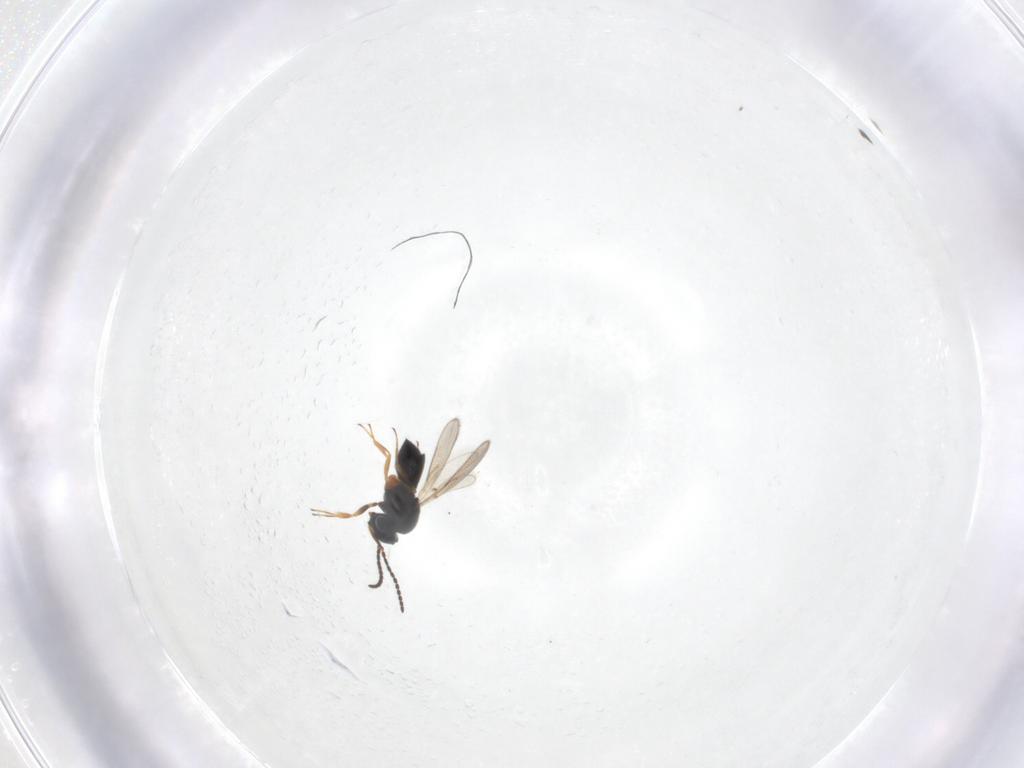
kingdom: Animalia
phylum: Arthropoda
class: Insecta
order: Hymenoptera
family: Scelionidae
